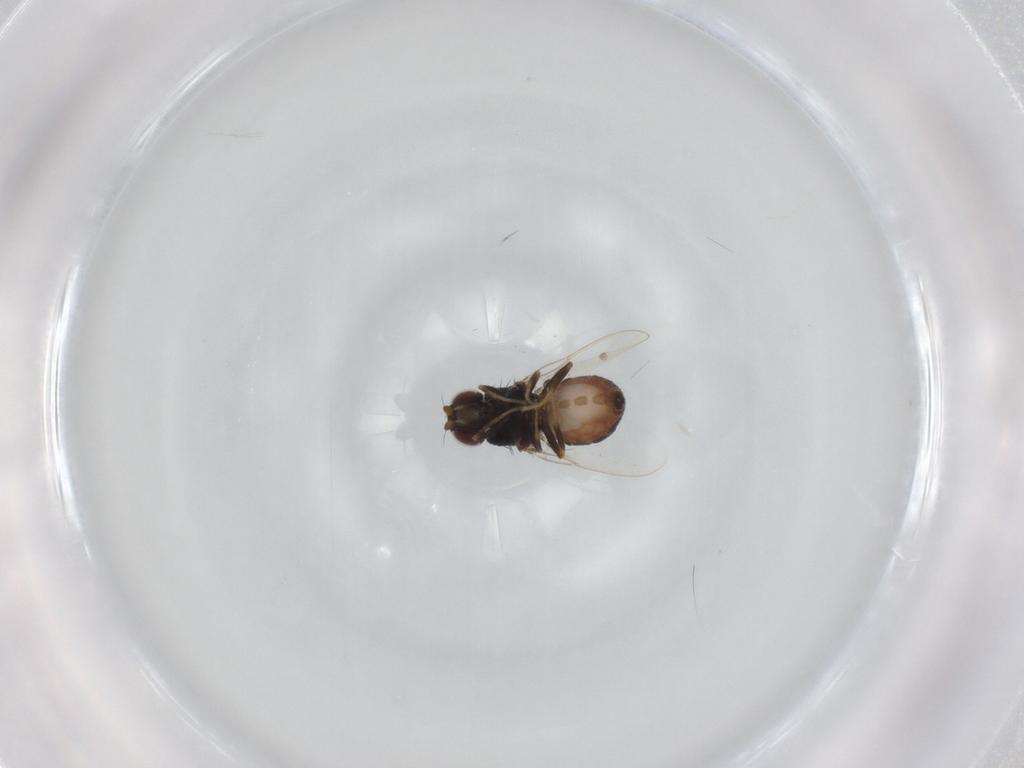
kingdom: Animalia
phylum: Arthropoda
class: Insecta
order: Diptera
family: Chloropidae
